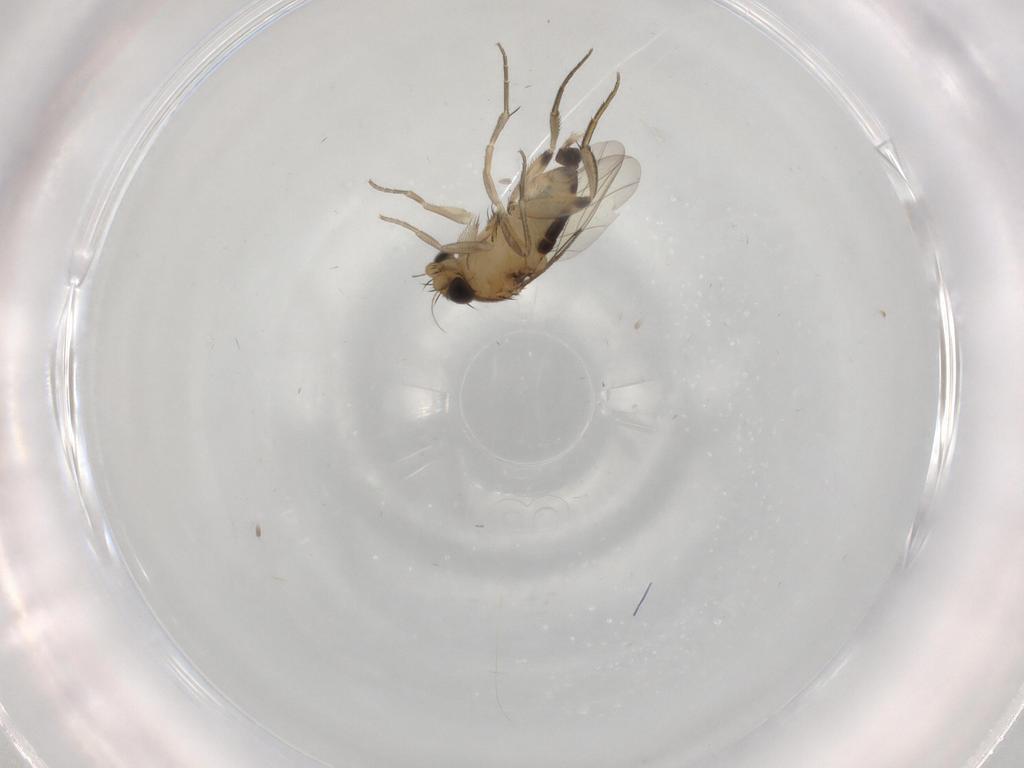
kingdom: Animalia
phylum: Arthropoda
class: Insecta
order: Diptera
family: Phoridae
